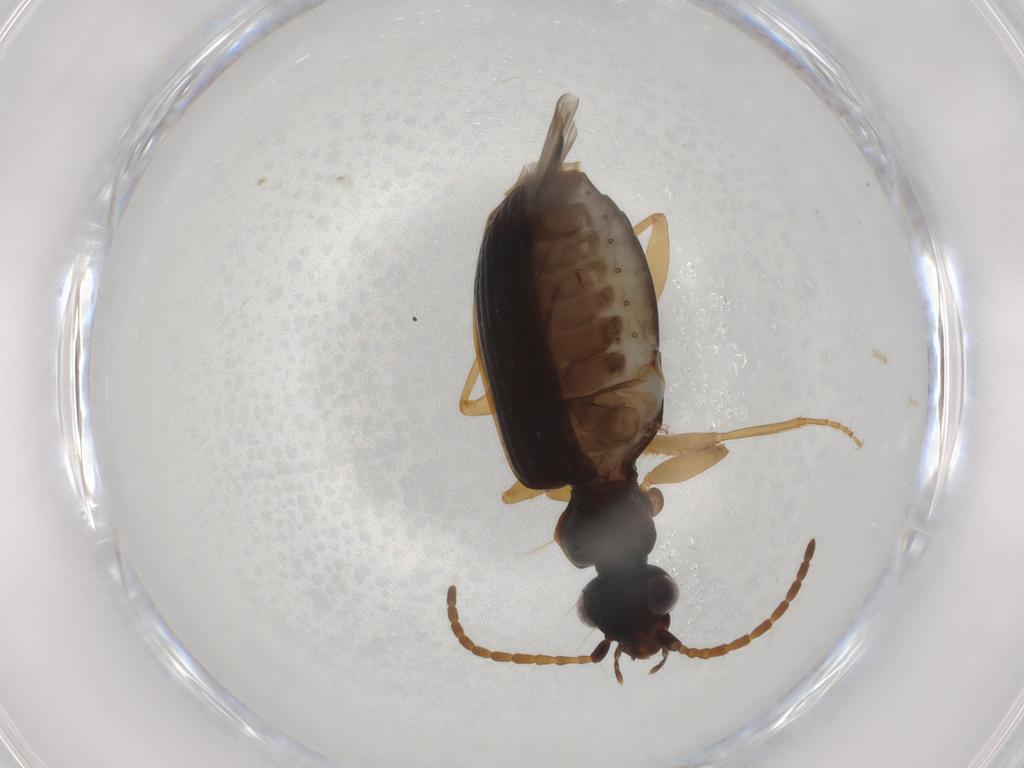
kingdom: Animalia
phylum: Arthropoda
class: Insecta
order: Coleoptera
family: Carabidae
